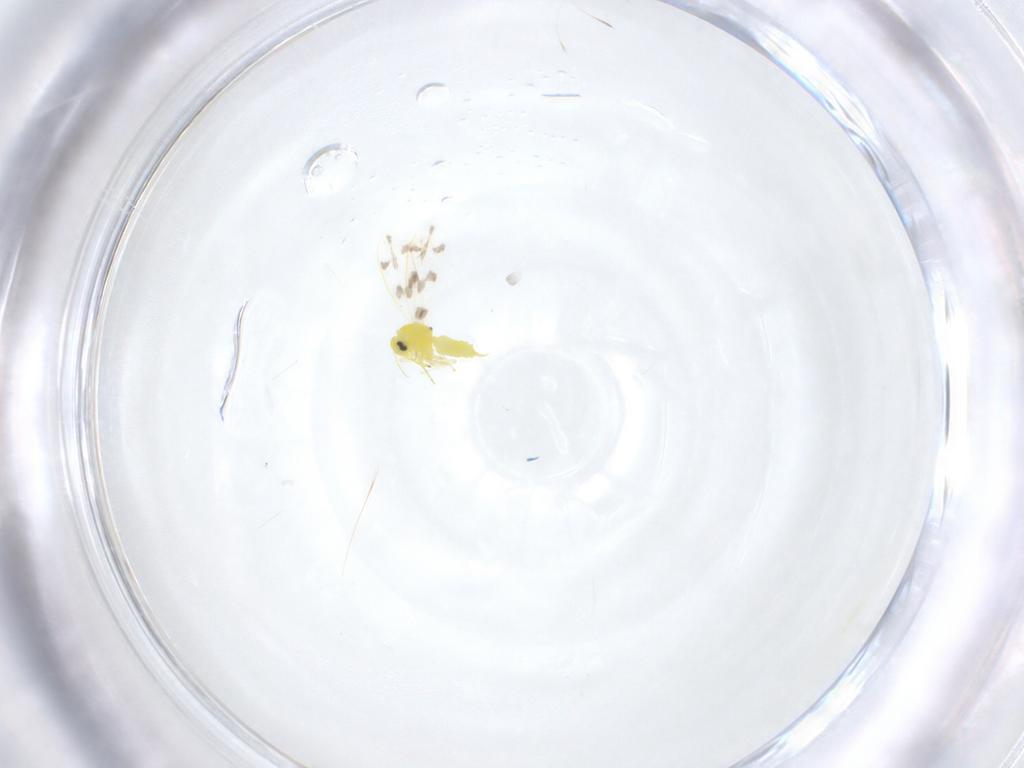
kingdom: Animalia
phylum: Arthropoda
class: Insecta
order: Hemiptera
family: Aleyrodidae
